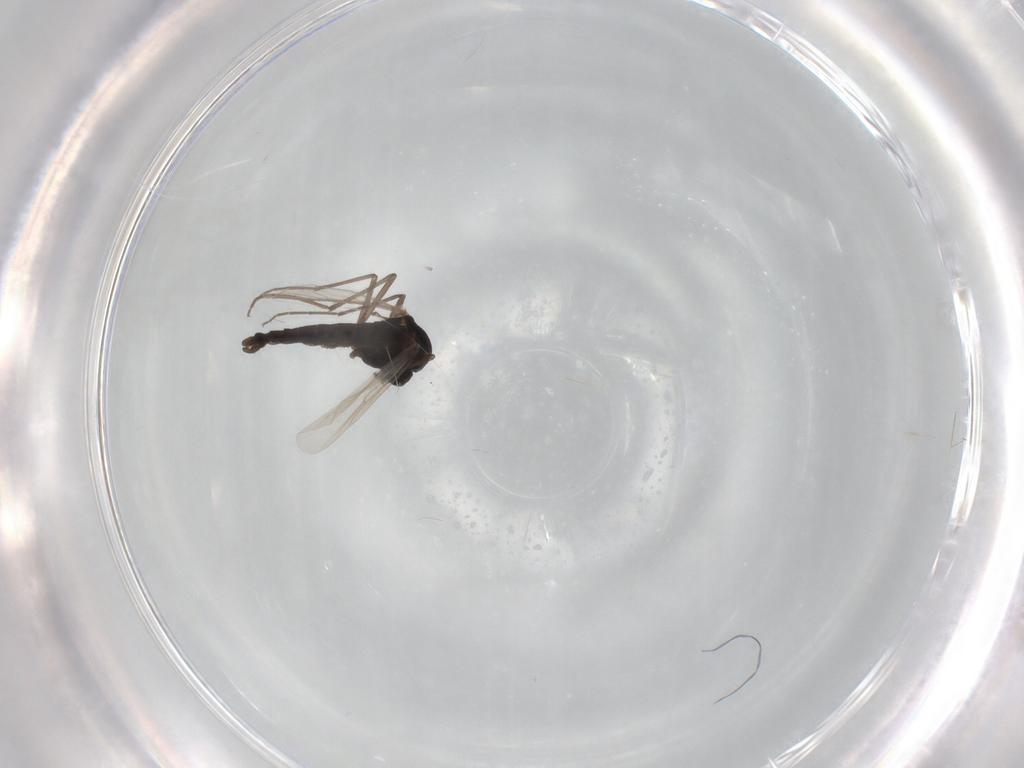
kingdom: Animalia
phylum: Arthropoda
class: Insecta
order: Diptera
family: Chironomidae
